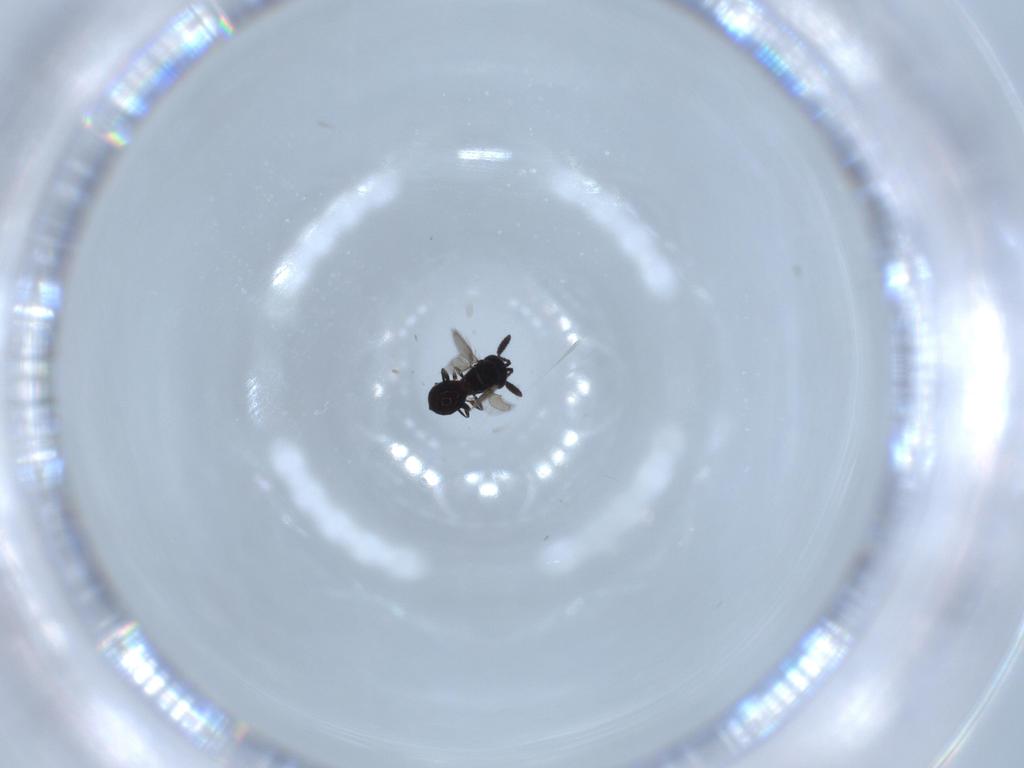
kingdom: Animalia
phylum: Arthropoda
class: Insecta
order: Hymenoptera
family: Scelionidae
